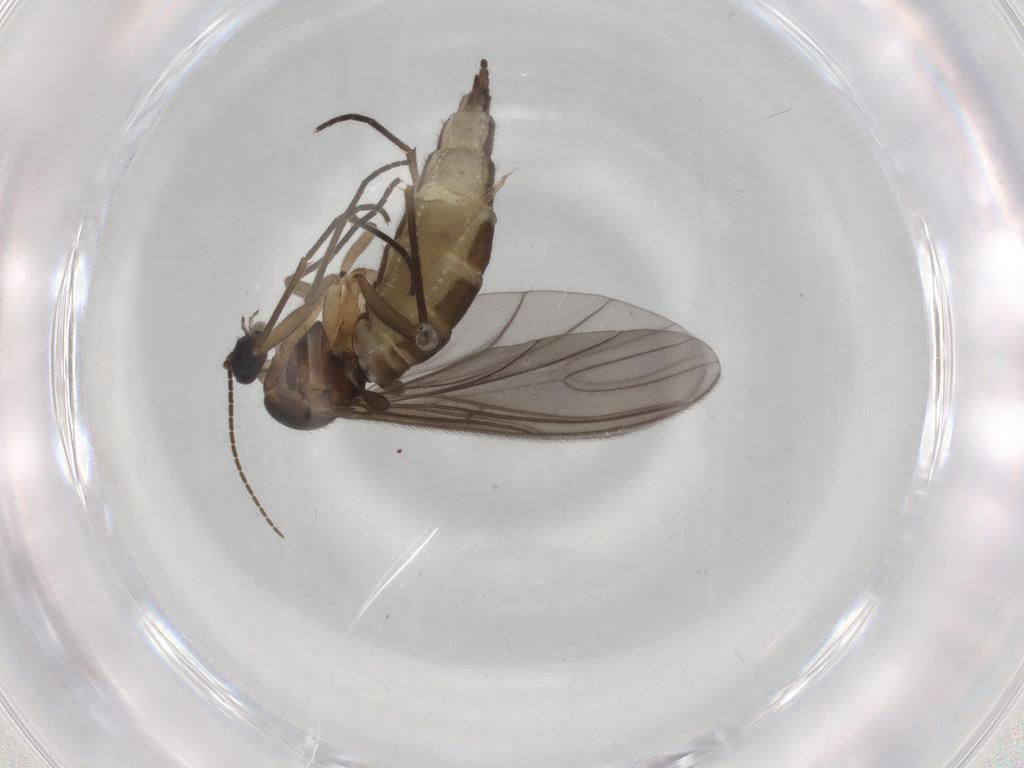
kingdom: Animalia
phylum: Arthropoda
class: Insecta
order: Diptera
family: Sciaridae
